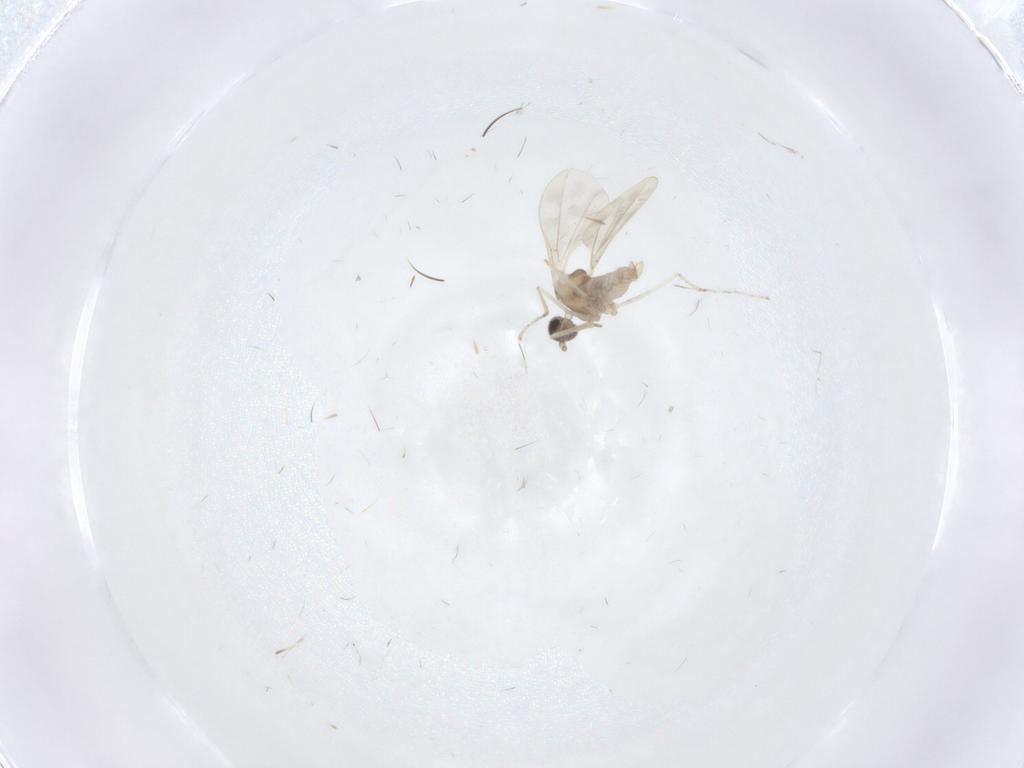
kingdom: Animalia
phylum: Arthropoda
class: Insecta
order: Diptera
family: Cecidomyiidae
